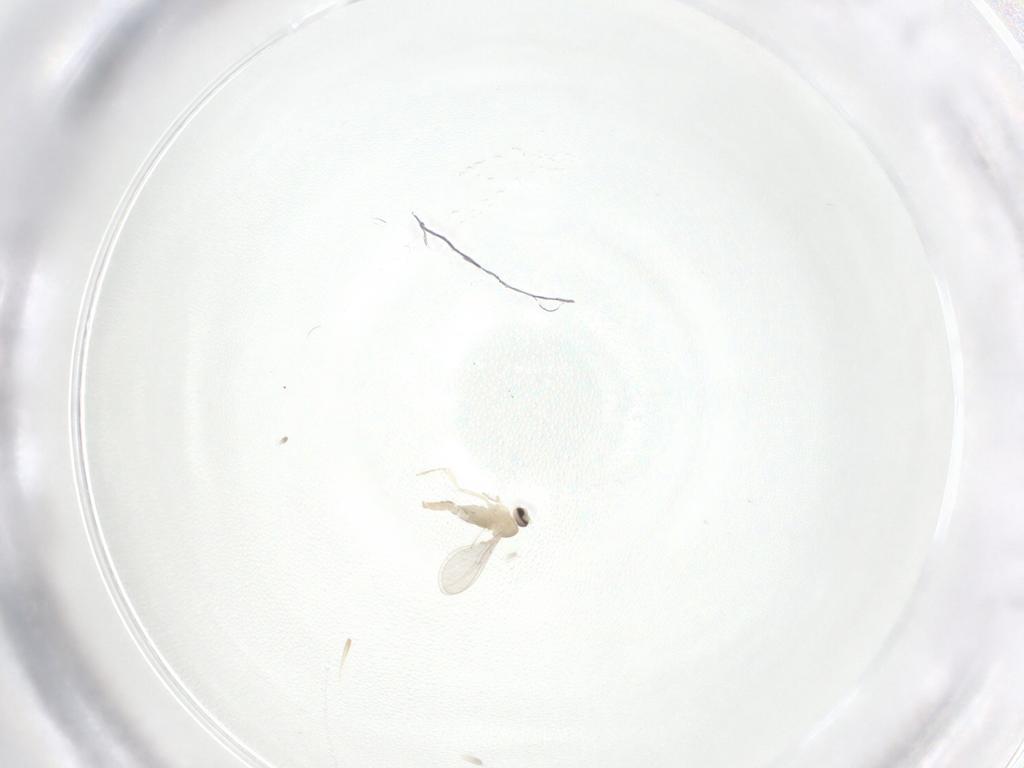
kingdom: Animalia
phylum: Arthropoda
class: Insecta
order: Diptera
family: Cecidomyiidae
